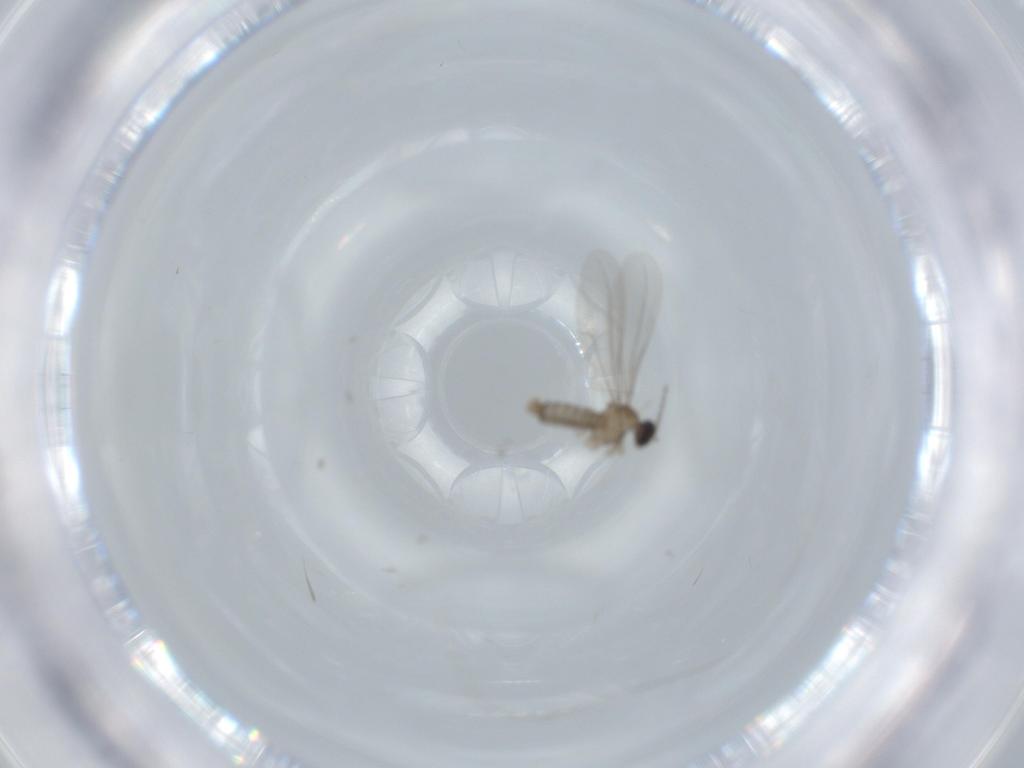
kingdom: Animalia
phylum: Arthropoda
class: Insecta
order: Diptera
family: Cecidomyiidae
